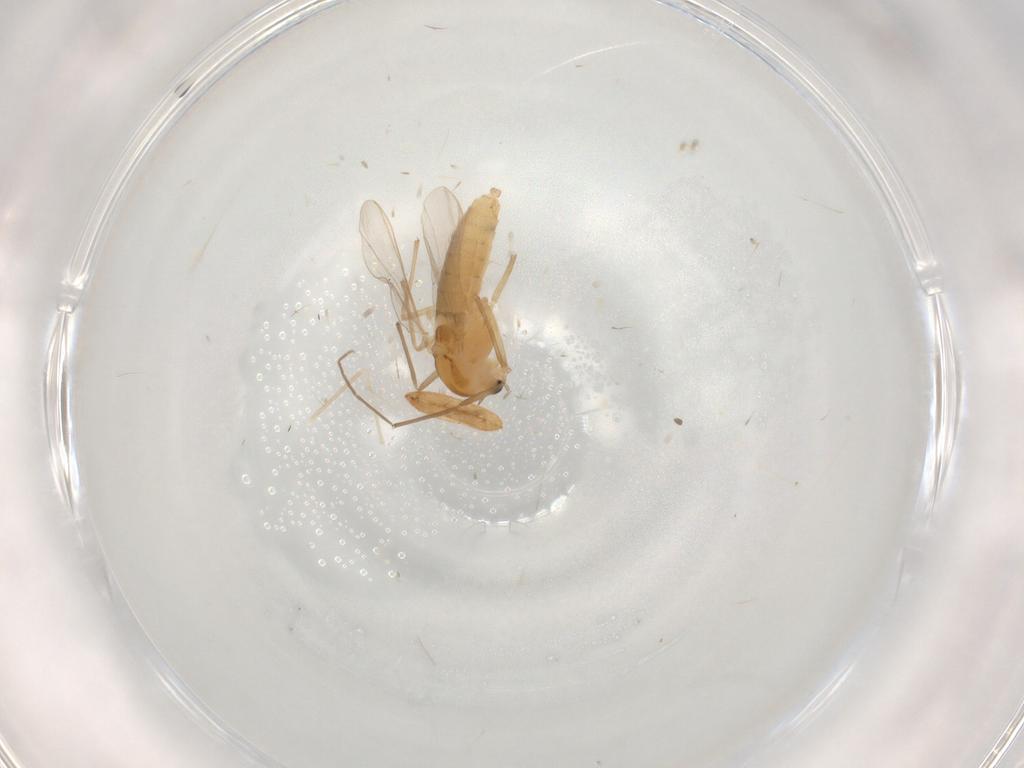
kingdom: Animalia
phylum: Arthropoda
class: Insecta
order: Diptera
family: Chironomidae
